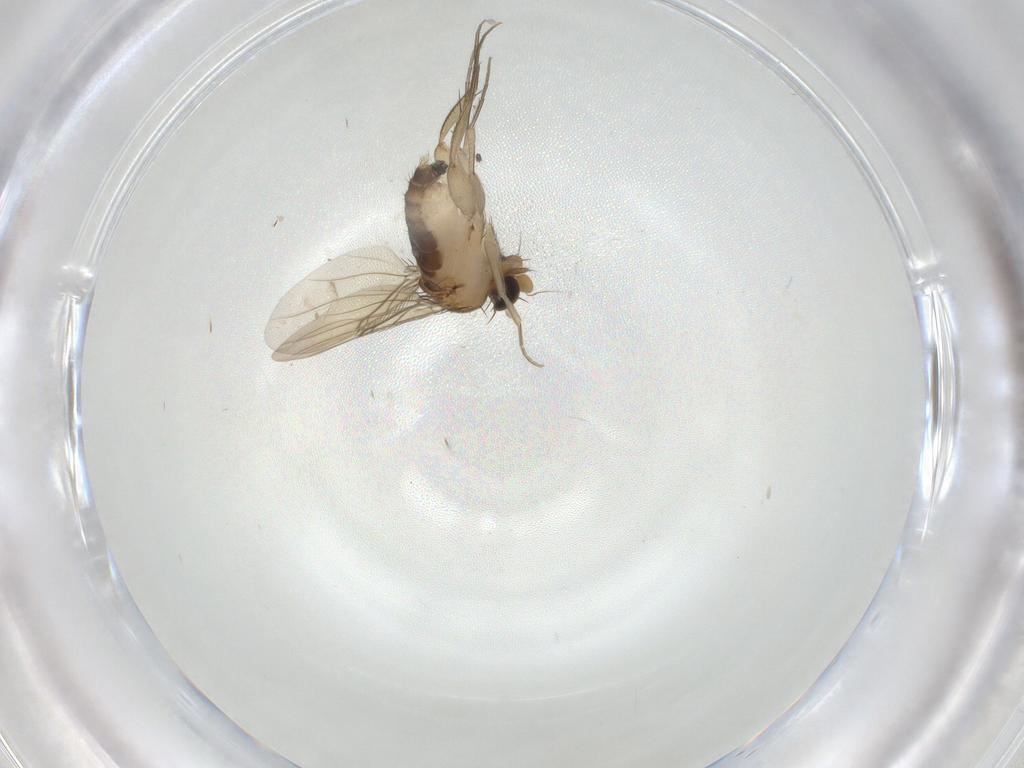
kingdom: Animalia
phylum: Arthropoda
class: Insecta
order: Diptera
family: Phoridae
